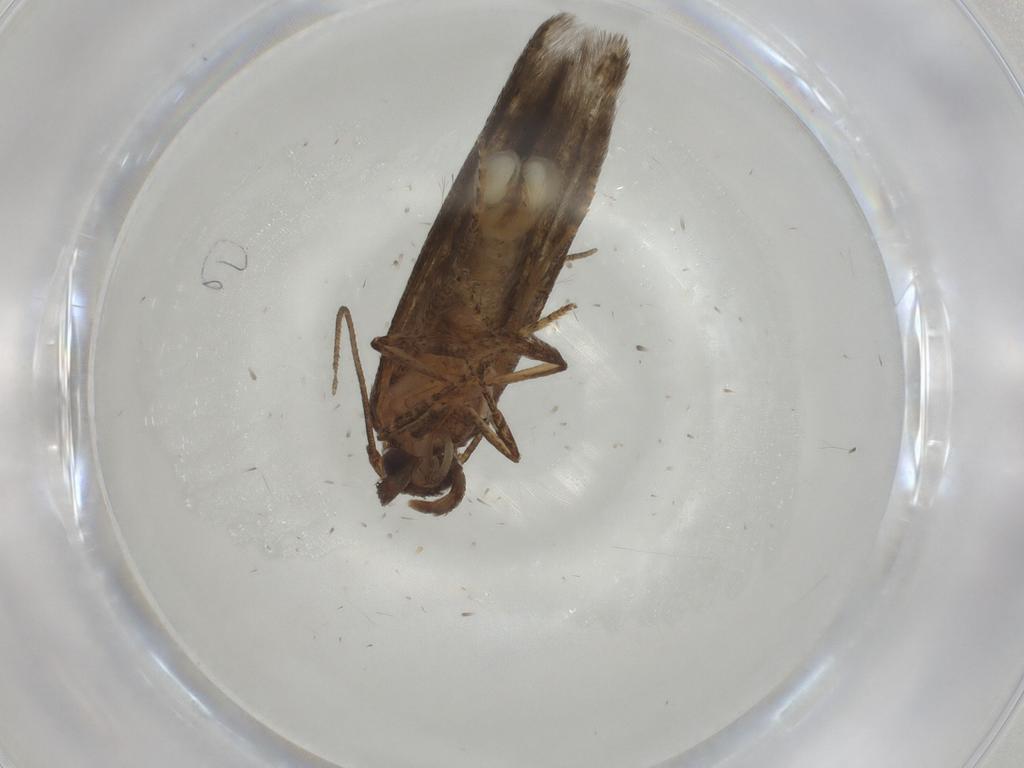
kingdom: Animalia
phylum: Arthropoda
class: Insecta
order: Lepidoptera
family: Blastobasidae
